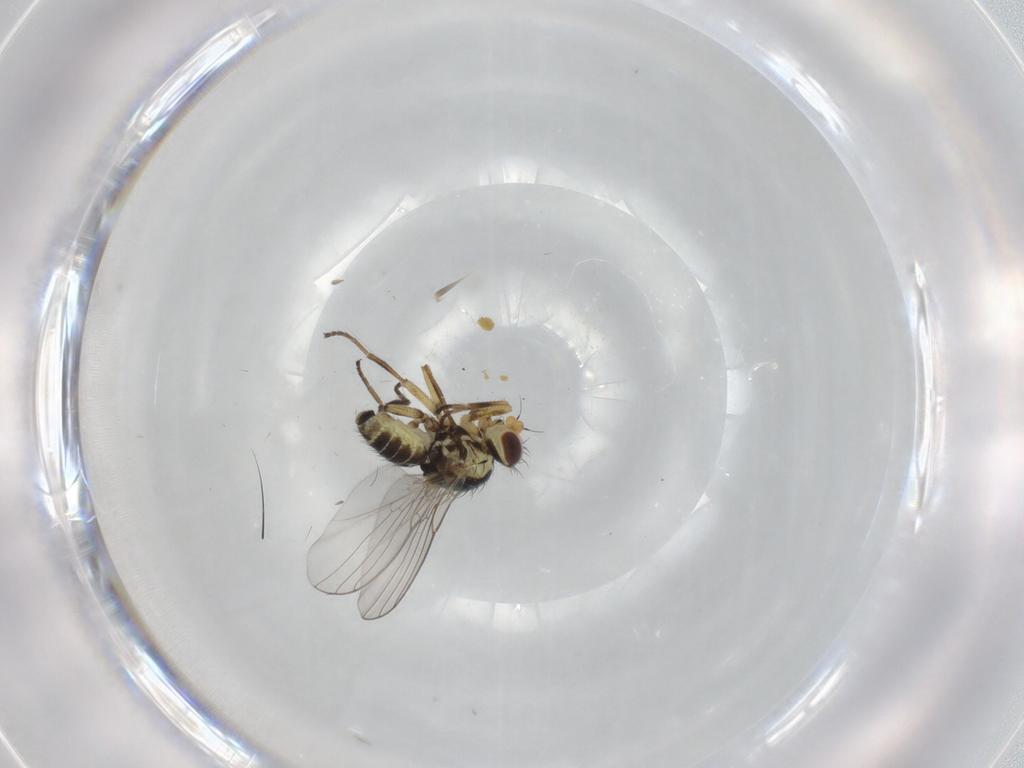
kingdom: Animalia
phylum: Arthropoda
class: Insecta
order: Diptera
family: Agromyzidae
